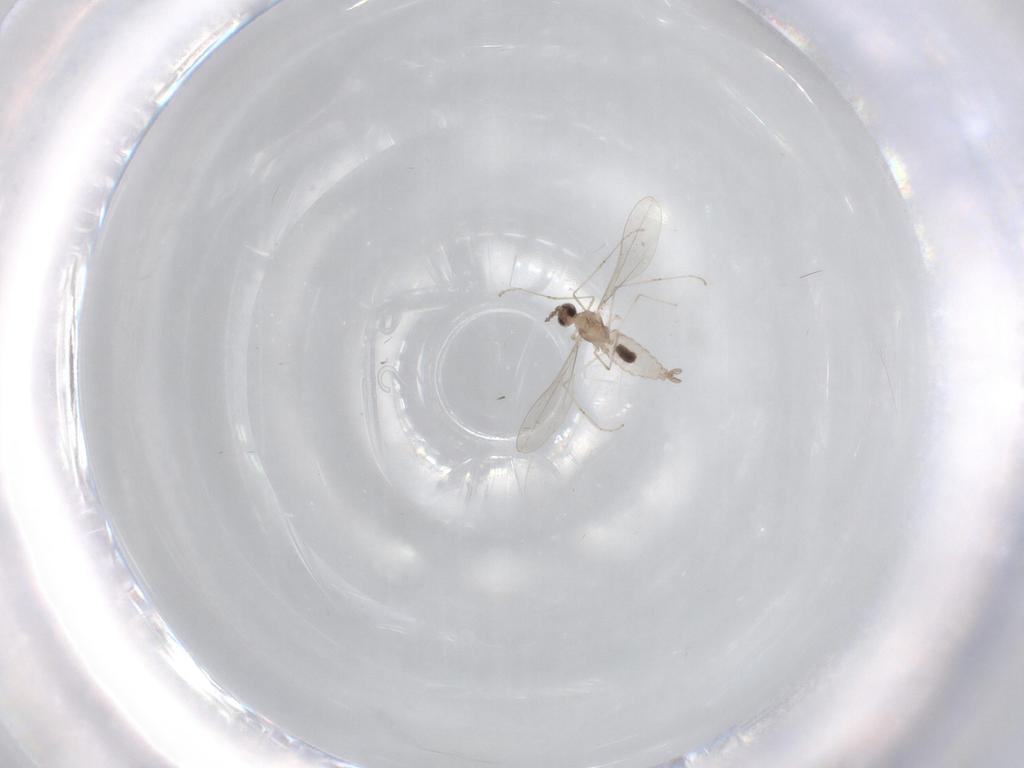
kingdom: Animalia
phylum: Arthropoda
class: Insecta
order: Diptera
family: Cecidomyiidae
